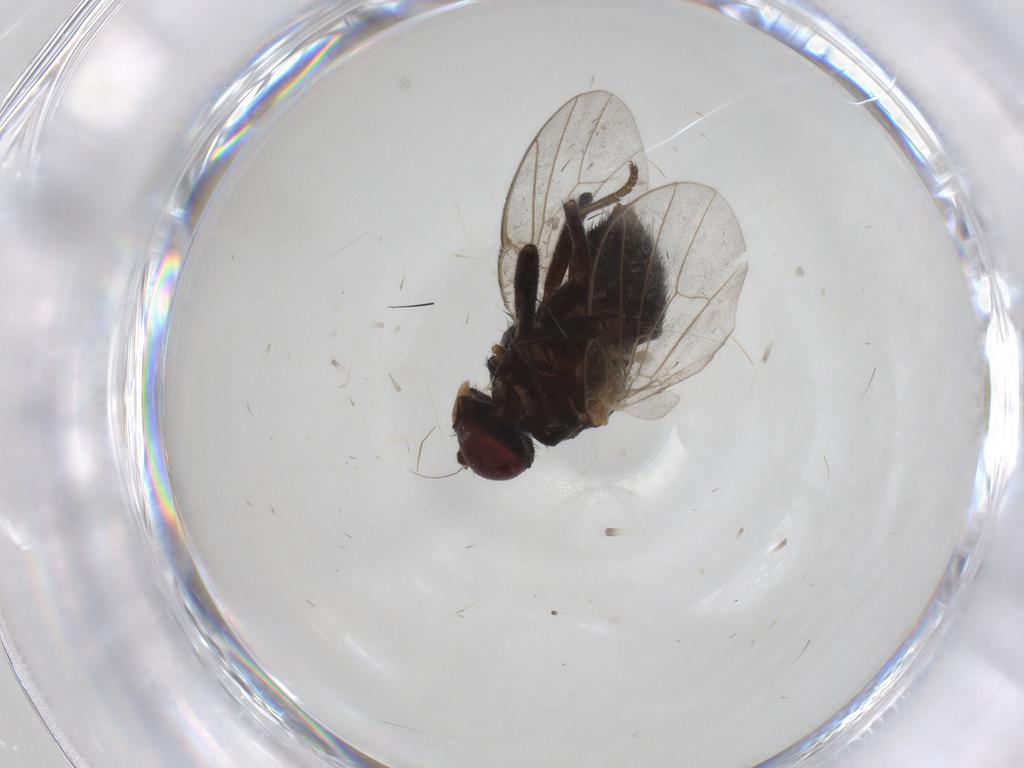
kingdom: Animalia
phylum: Arthropoda
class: Insecta
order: Diptera
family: Agromyzidae
